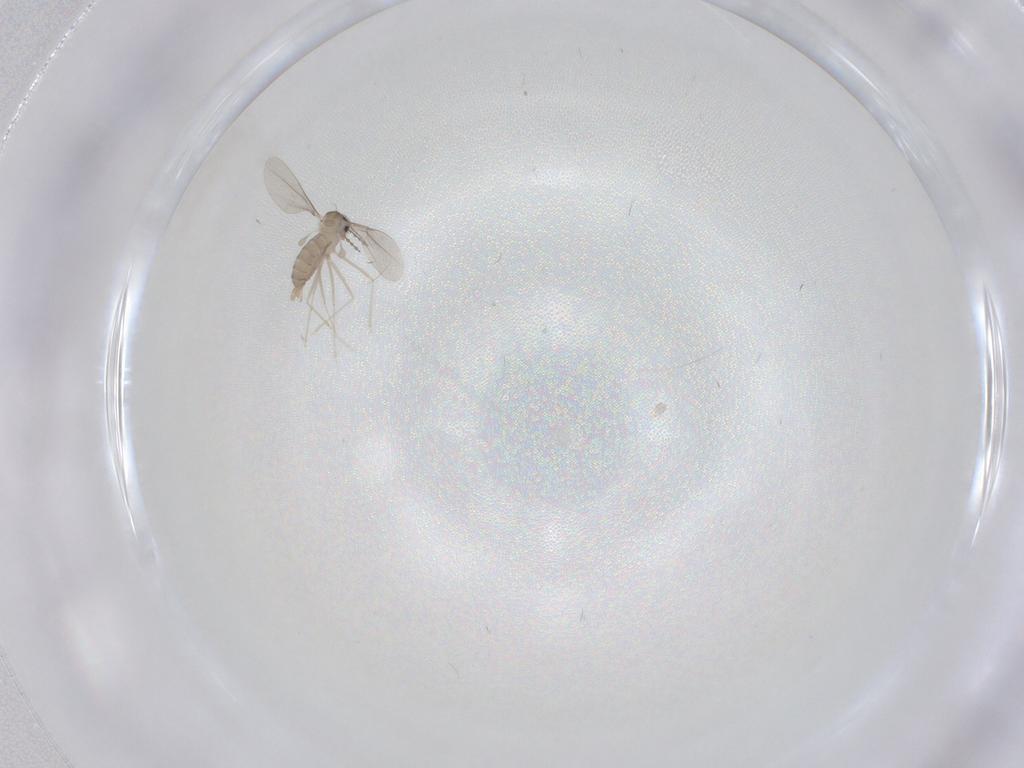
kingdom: Animalia
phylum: Arthropoda
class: Insecta
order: Diptera
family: Cecidomyiidae
